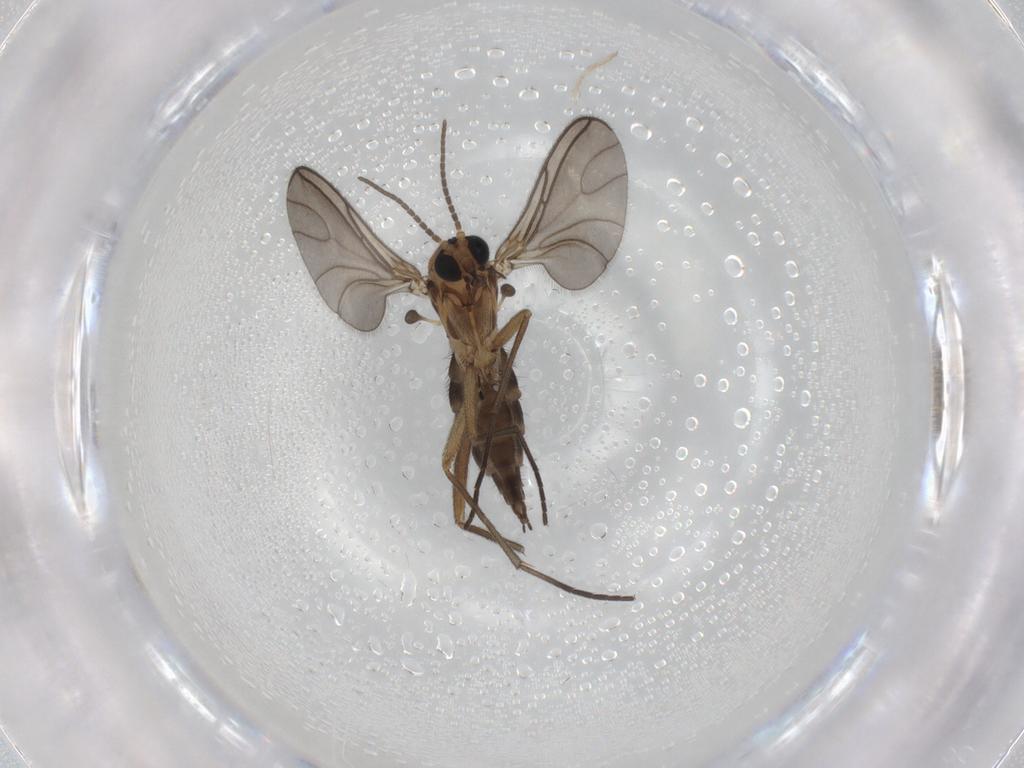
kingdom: Animalia
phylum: Arthropoda
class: Insecta
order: Diptera
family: Sciaridae
